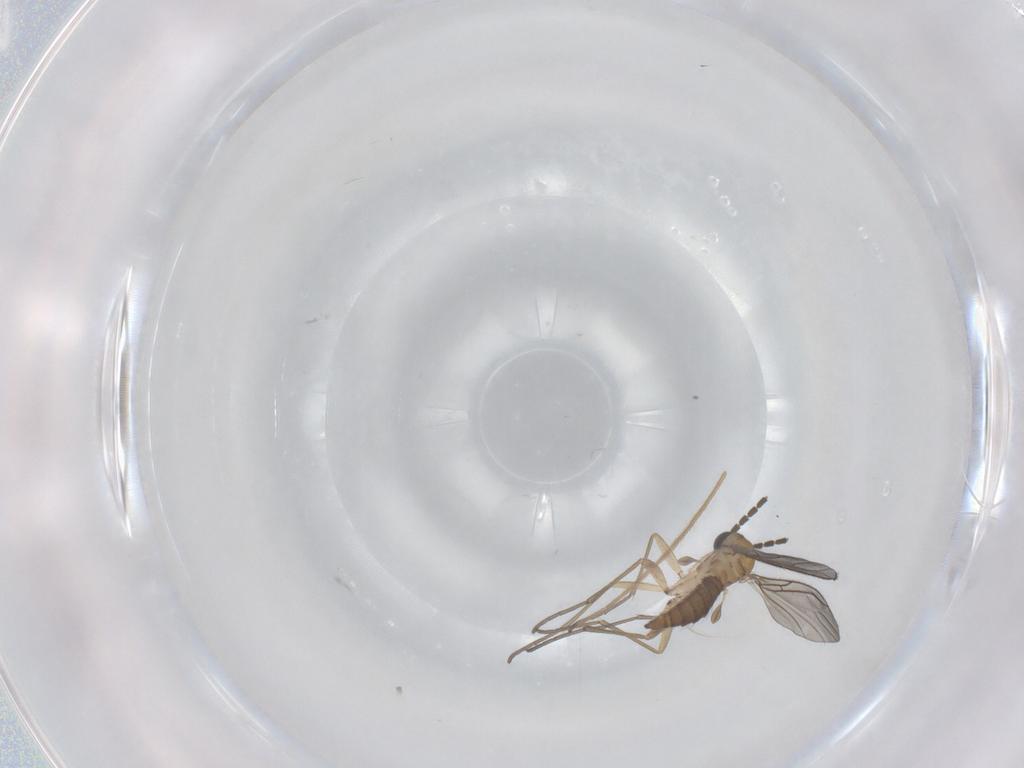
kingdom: Animalia
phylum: Arthropoda
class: Insecta
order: Diptera
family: Sciaridae
